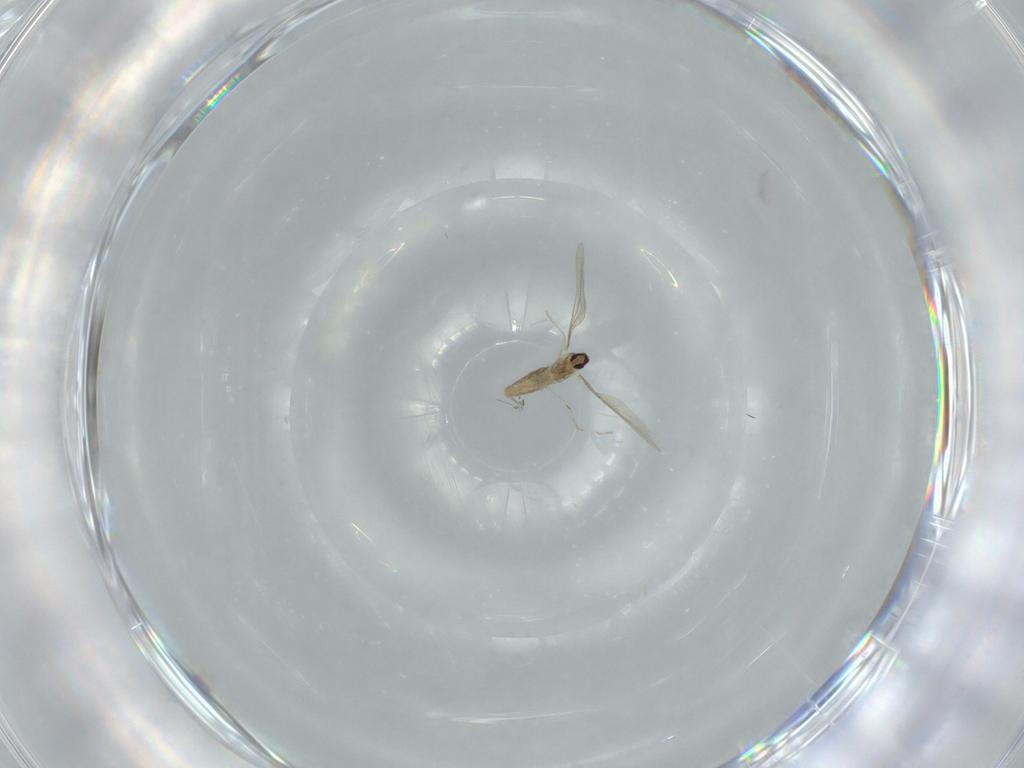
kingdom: Animalia
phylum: Arthropoda
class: Insecta
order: Diptera
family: Cecidomyiidae
